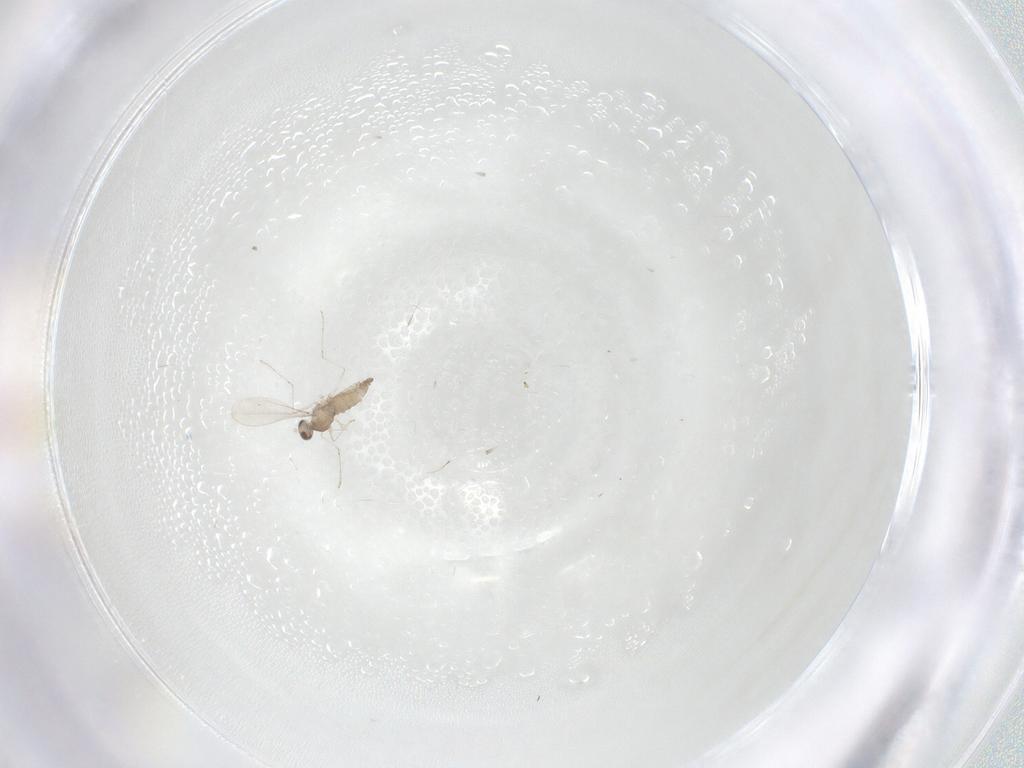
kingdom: Animalia
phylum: Arthropoda
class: Insecta
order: Diptera
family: Cecidomyiidae
